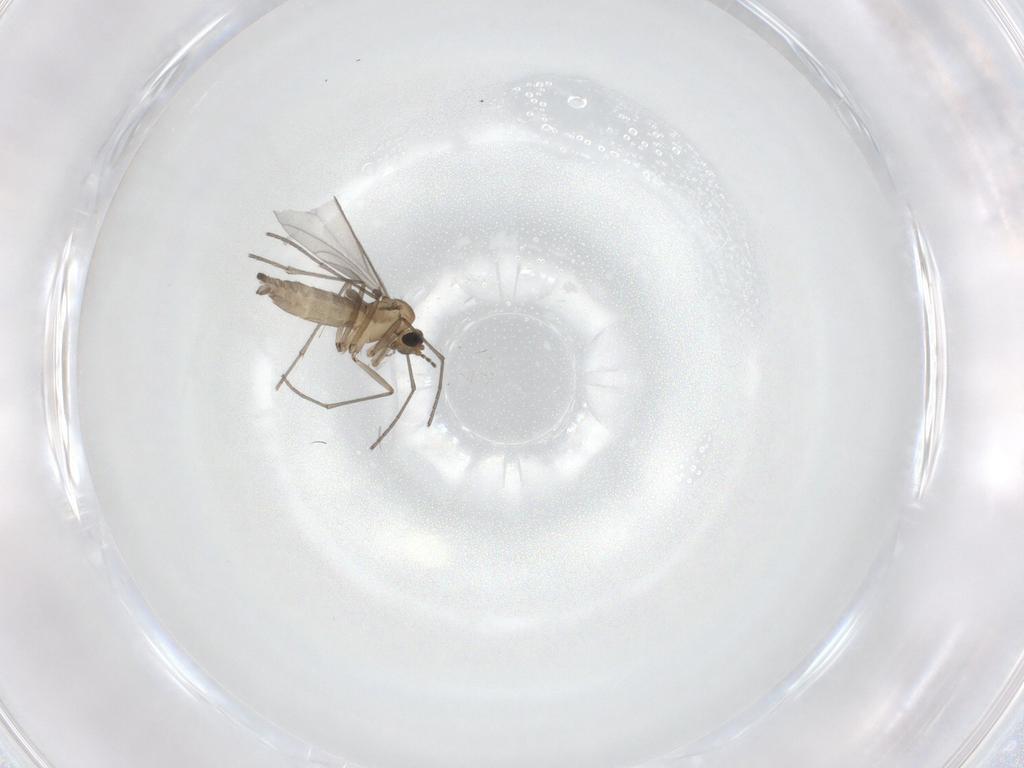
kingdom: Animalia
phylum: Arthropoda
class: Insecta
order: Diptera
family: Sciaridae
